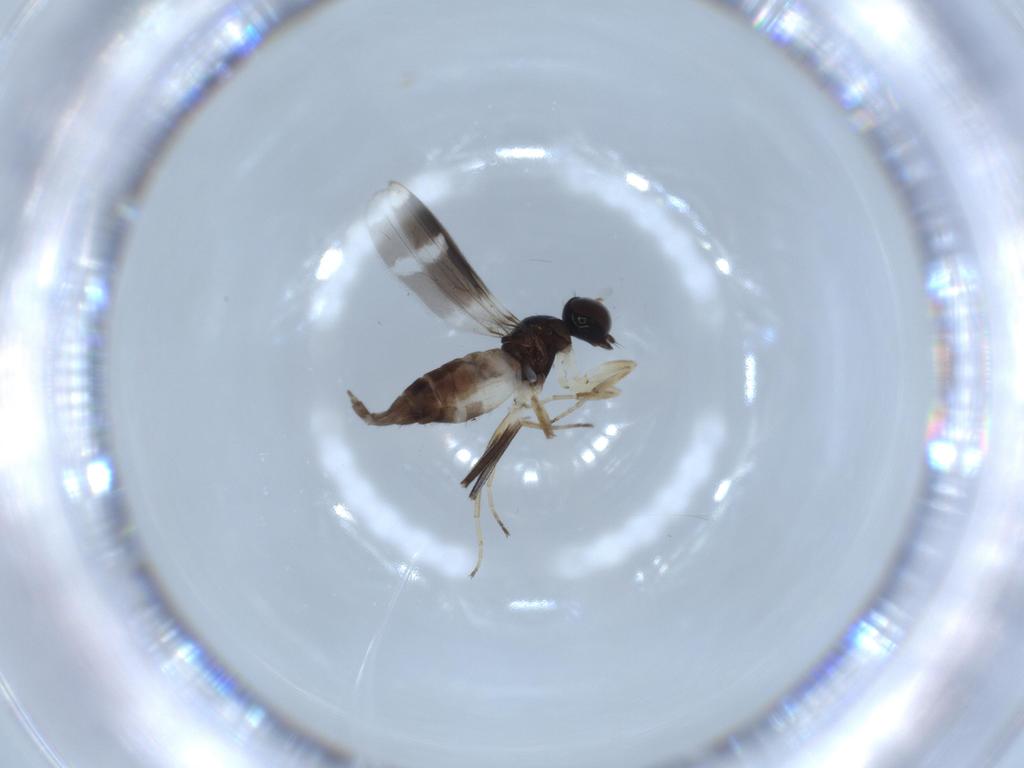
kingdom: Animalia
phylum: Arthropoda
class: Insecta
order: Diptera
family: Hybotidae
